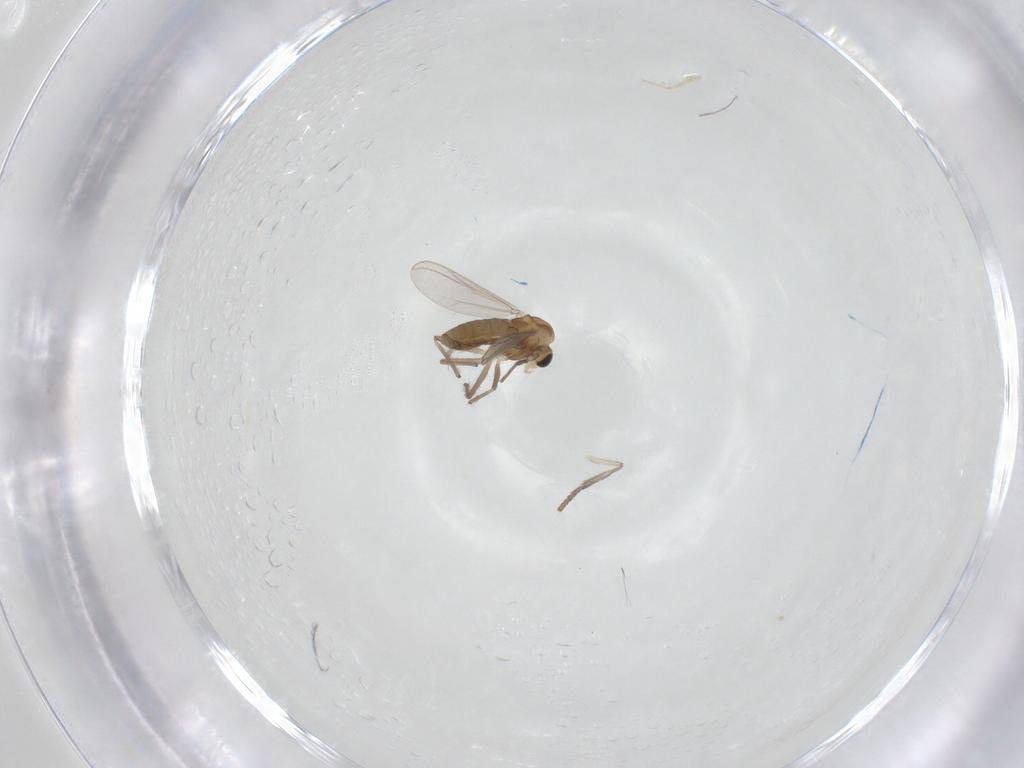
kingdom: Animalia
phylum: Arthropoda
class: Insecta
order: Diptera
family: Chironomidae
